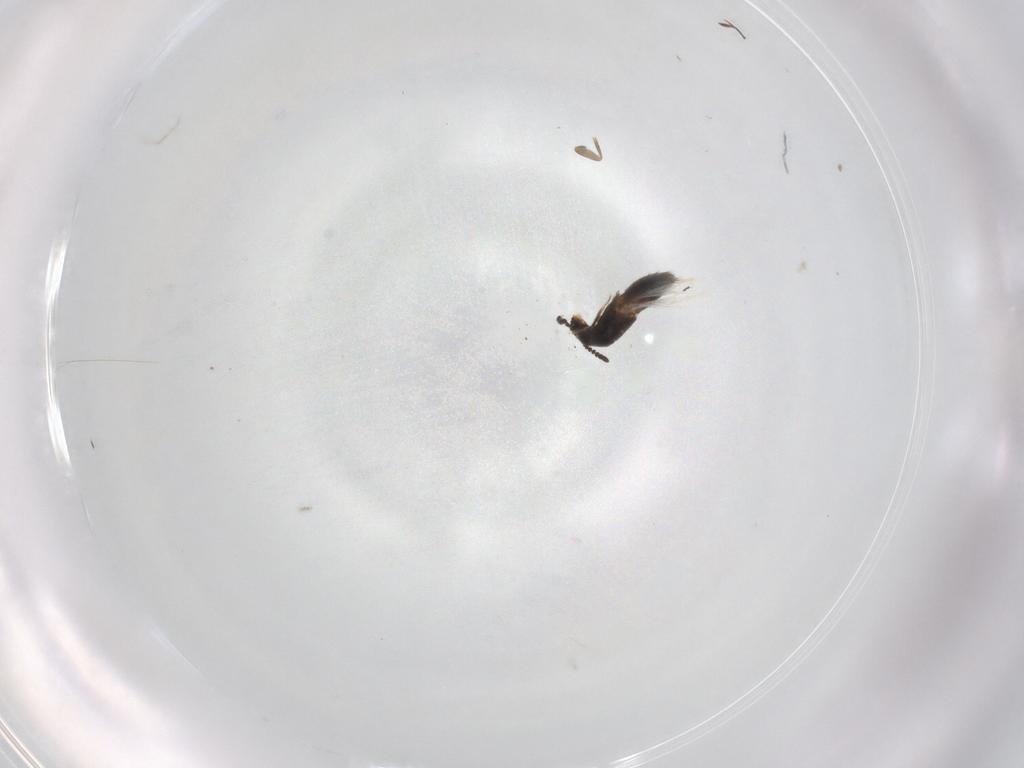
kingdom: Animalia
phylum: Arthropoda
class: Insecta
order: Coleoptera
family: Staphylinidae
